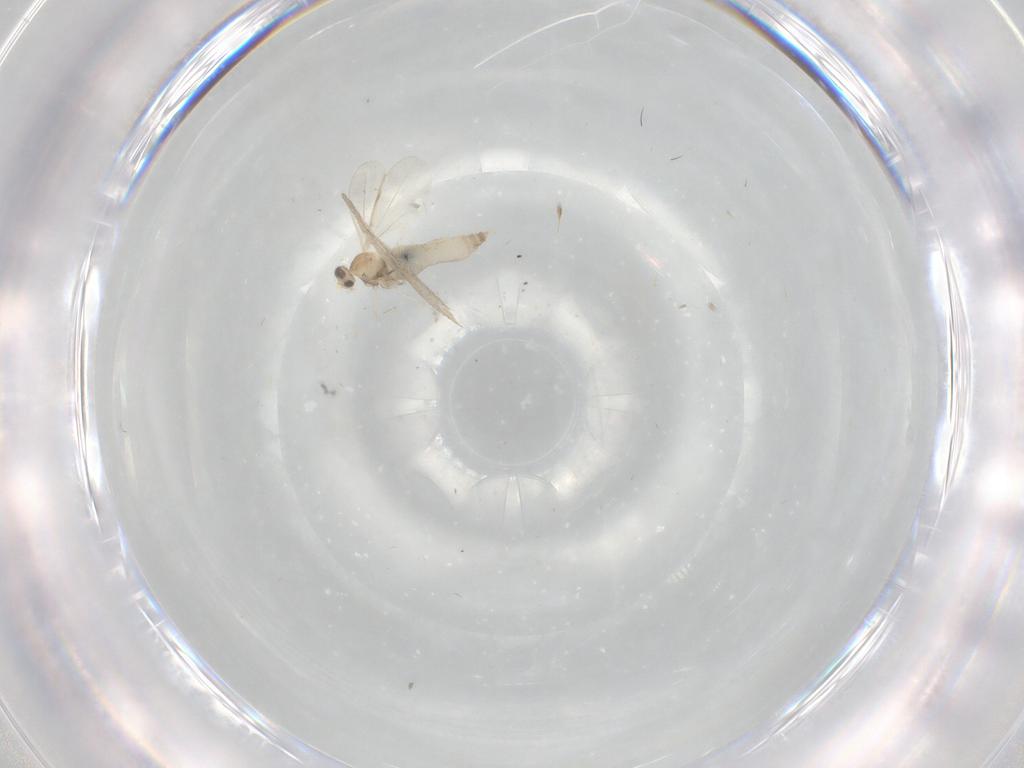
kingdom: Animalia
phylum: Arthropoda
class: Insecta
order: Diptera
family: Cecidomyiidae
